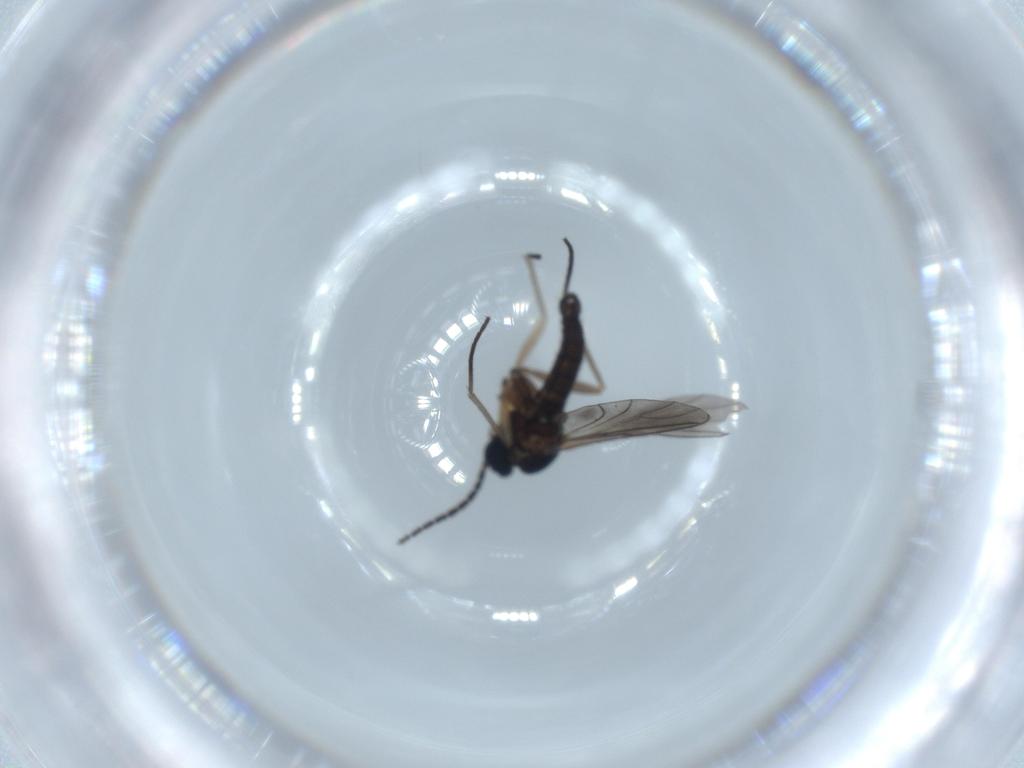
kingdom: Animalia
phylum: Arthropoda
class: Insecta
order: Diptera
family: Sciaridae
